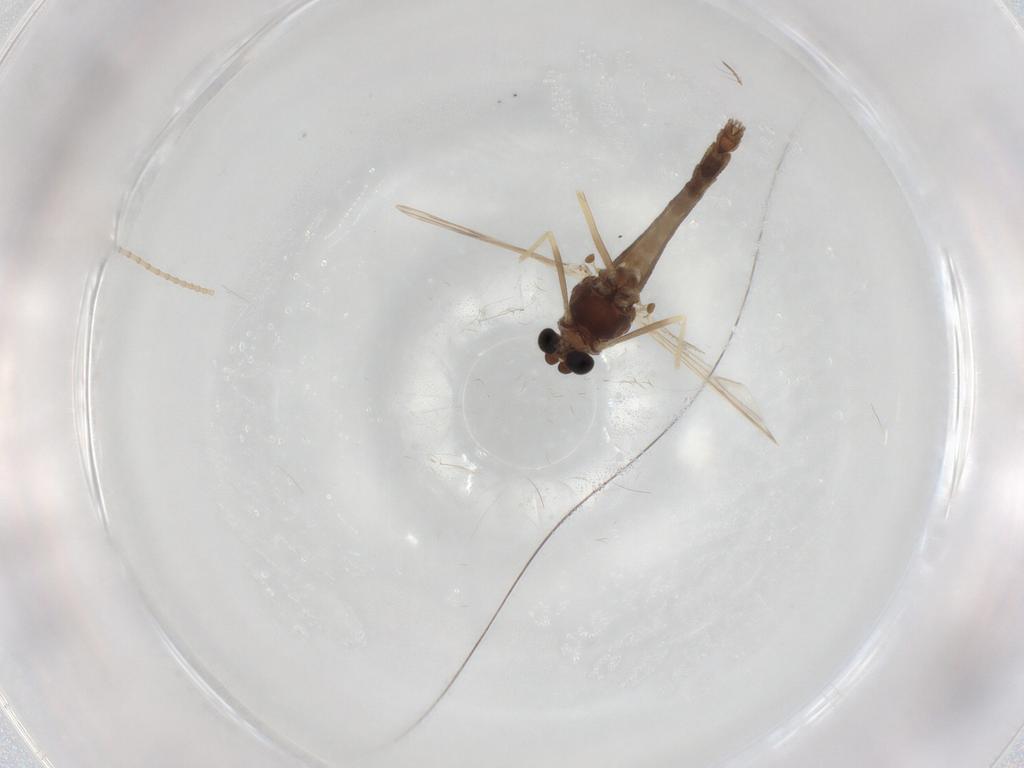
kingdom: Animalia
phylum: Arthropoda
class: Insecta
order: Diptera
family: Chironomidae
